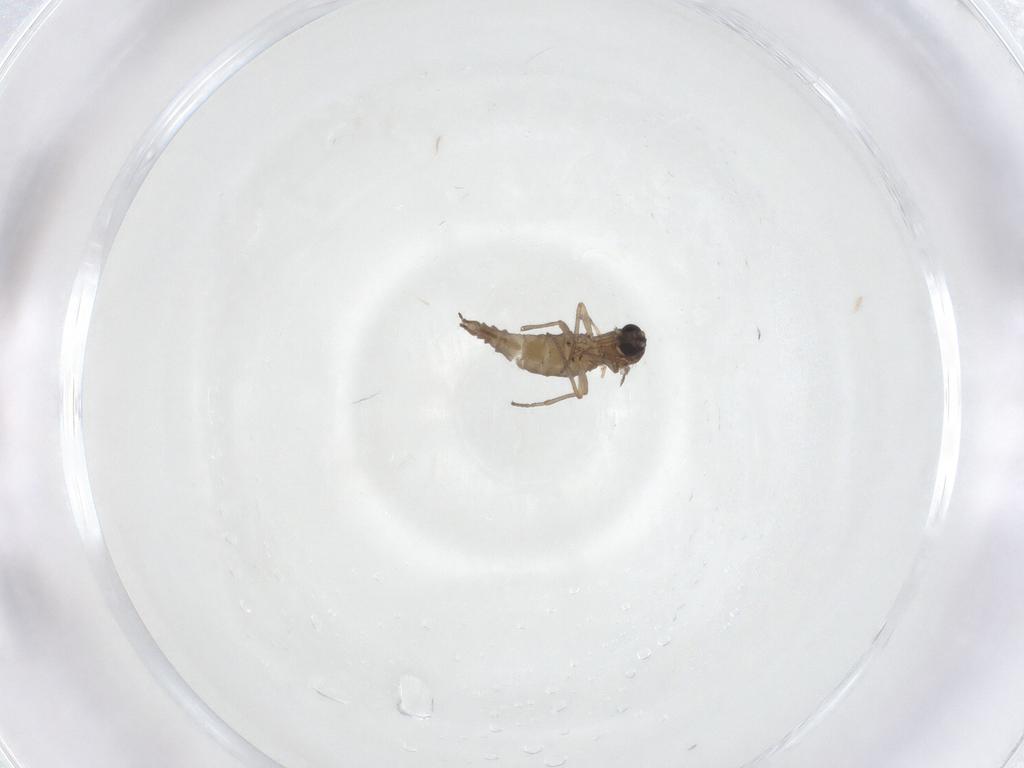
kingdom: Animalia
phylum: Arthropoda
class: Insecta
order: Diptera
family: Sciaridae
